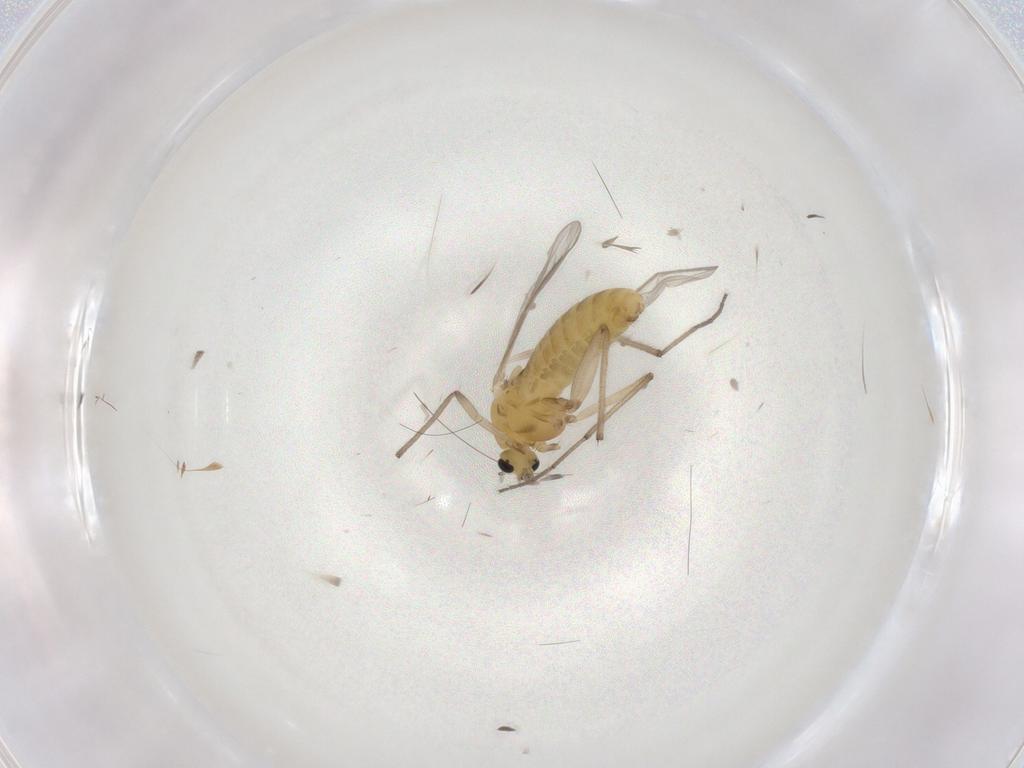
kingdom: Animalia
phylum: Arthropoda
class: Insecta
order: Diptera
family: Chironomidae
